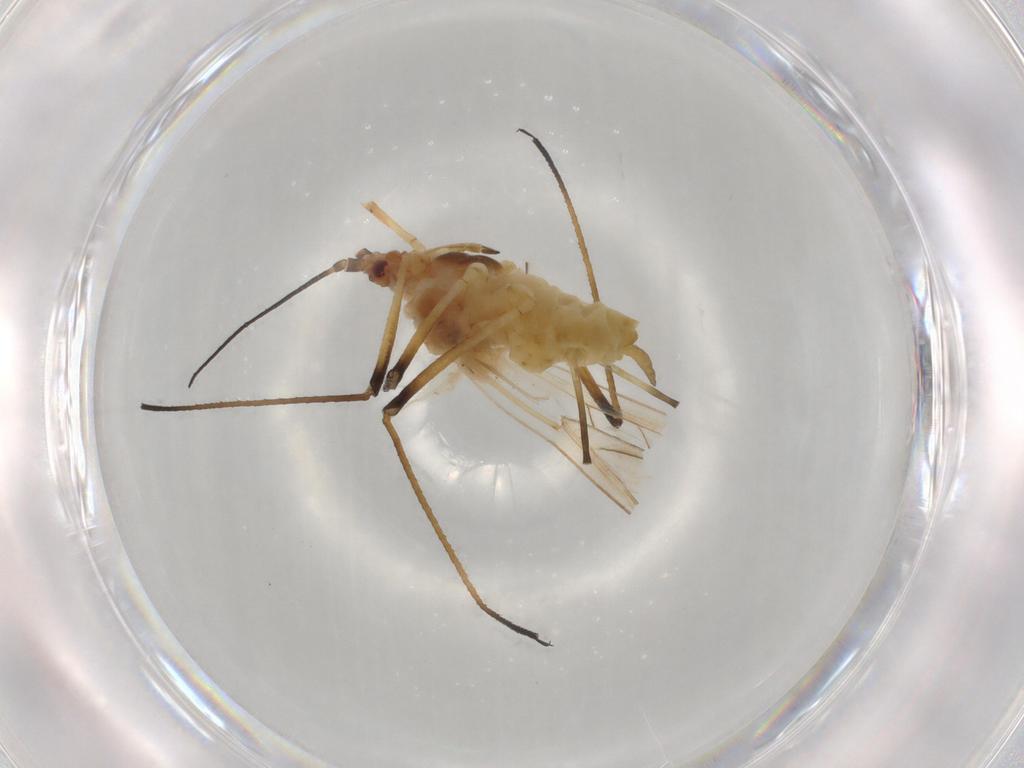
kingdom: Animalia
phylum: Arthropoda
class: Insecta
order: Hemiptera
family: Aphididae
